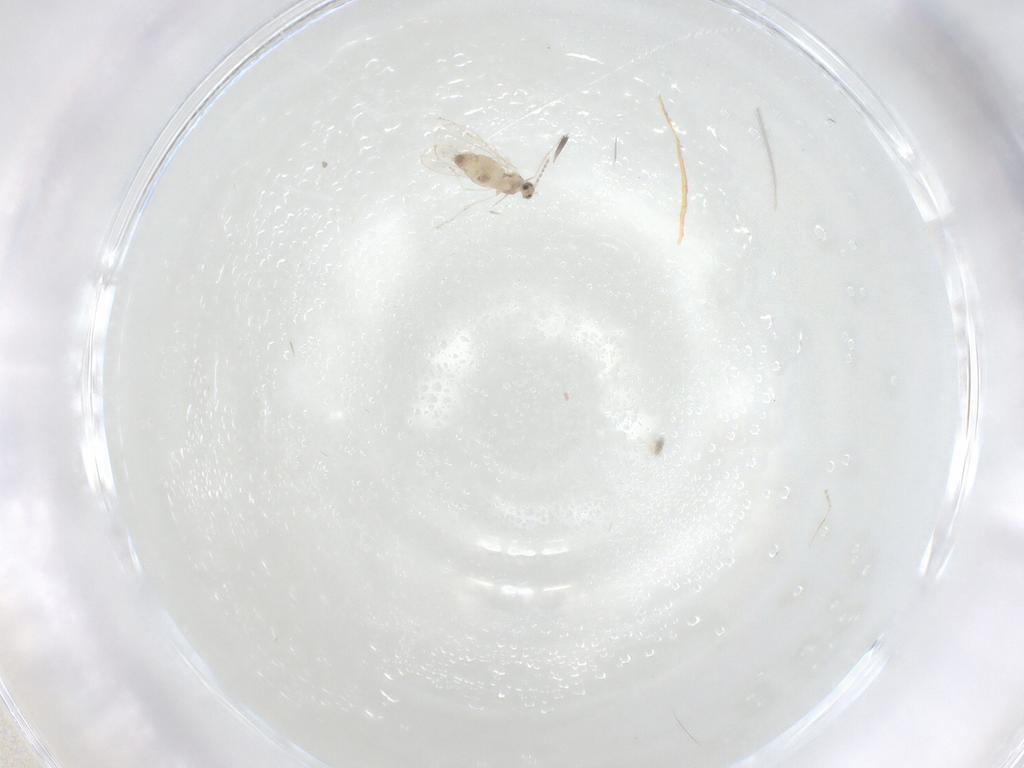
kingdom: Animalia
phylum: Arthropoda
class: Insecta
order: Diptera
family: Cecidomyiidae
